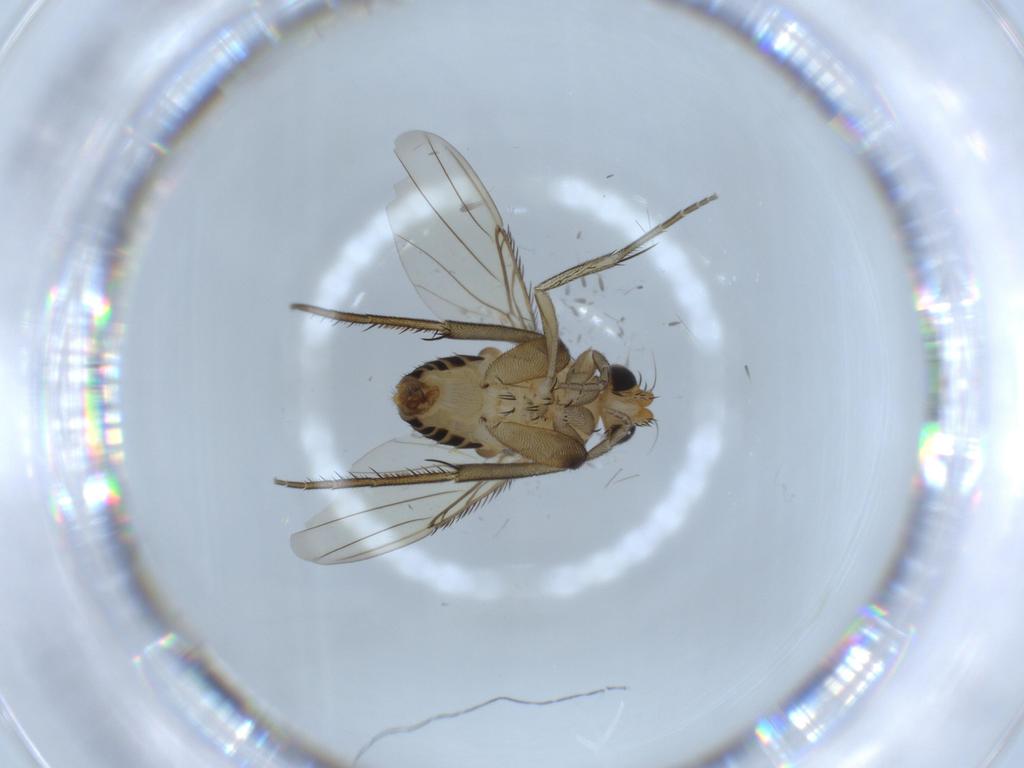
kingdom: Animalia
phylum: Arthropoda
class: Insecta
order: Diptera
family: Phoridae
